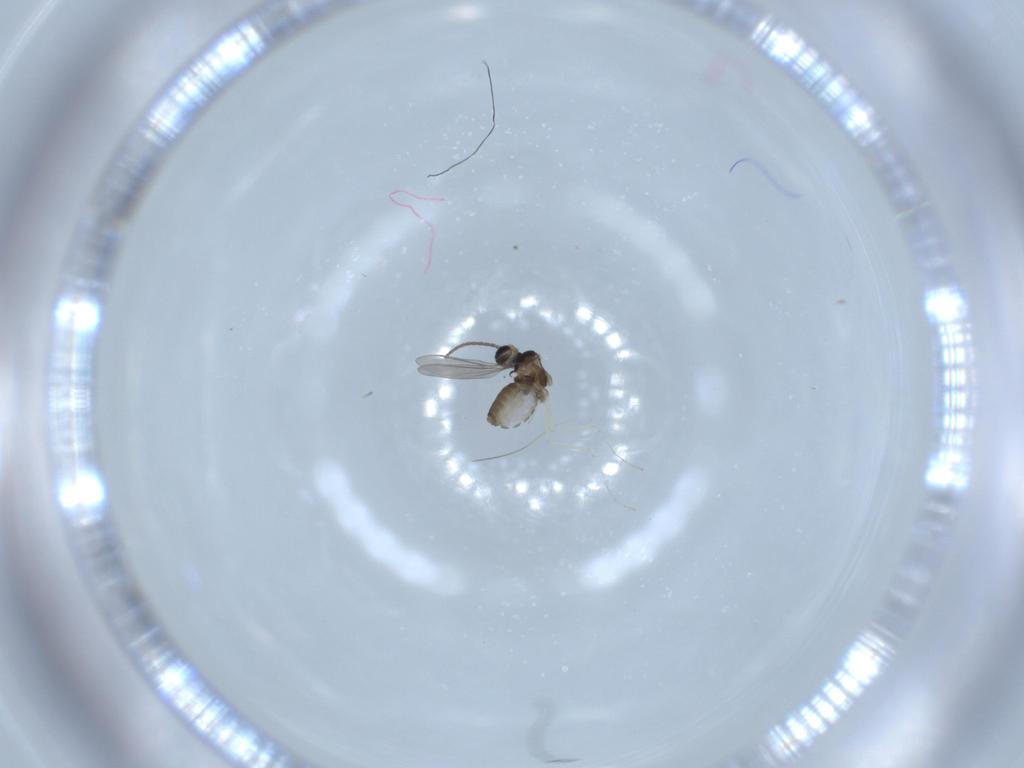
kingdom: Animalia
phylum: Arthropoda
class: Insecta
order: Diptera
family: Cecidomyiidae
